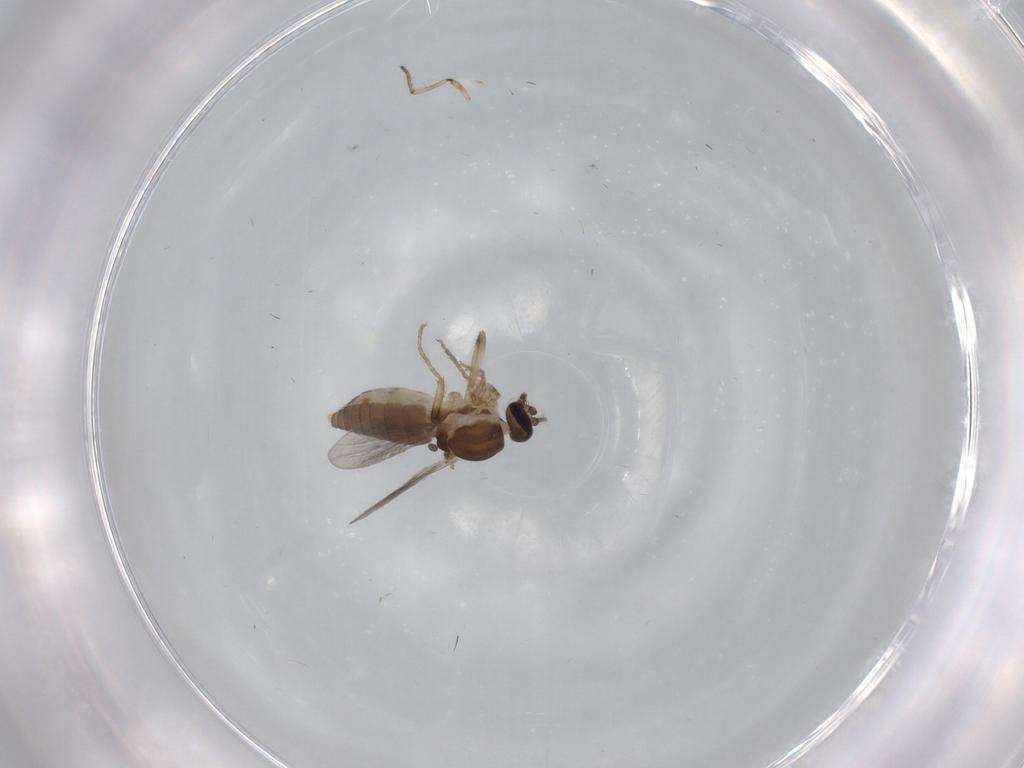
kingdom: Animalia
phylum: Arthropoda
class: Insecta
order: Diptera
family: Ceratopogonidae
